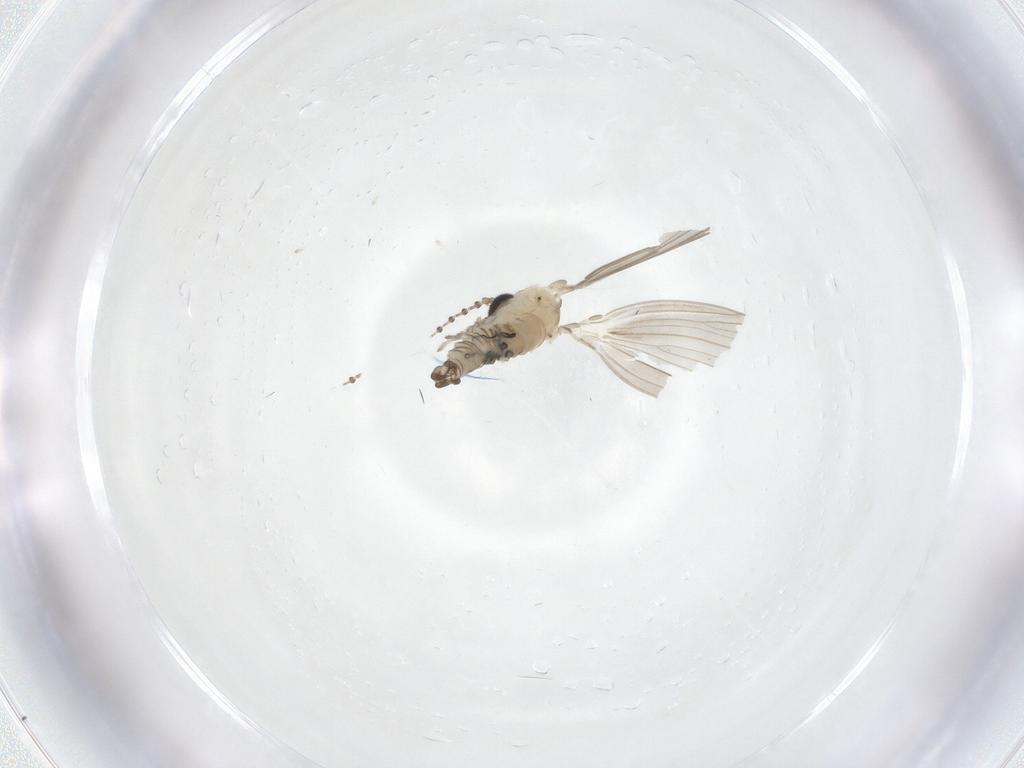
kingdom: Animalia
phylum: Arthropoda
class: Insecta
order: Diptera
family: Psychodidae
